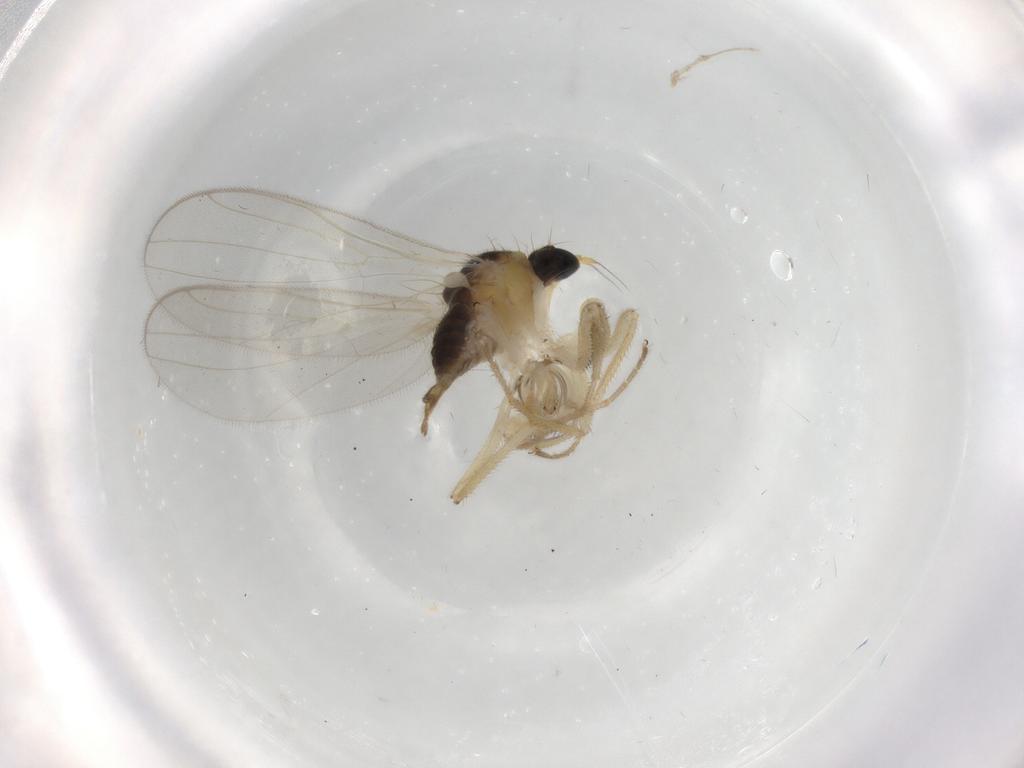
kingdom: Animalia
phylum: Arthropoda
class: Insecta
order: Diptera
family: Hybotidae
